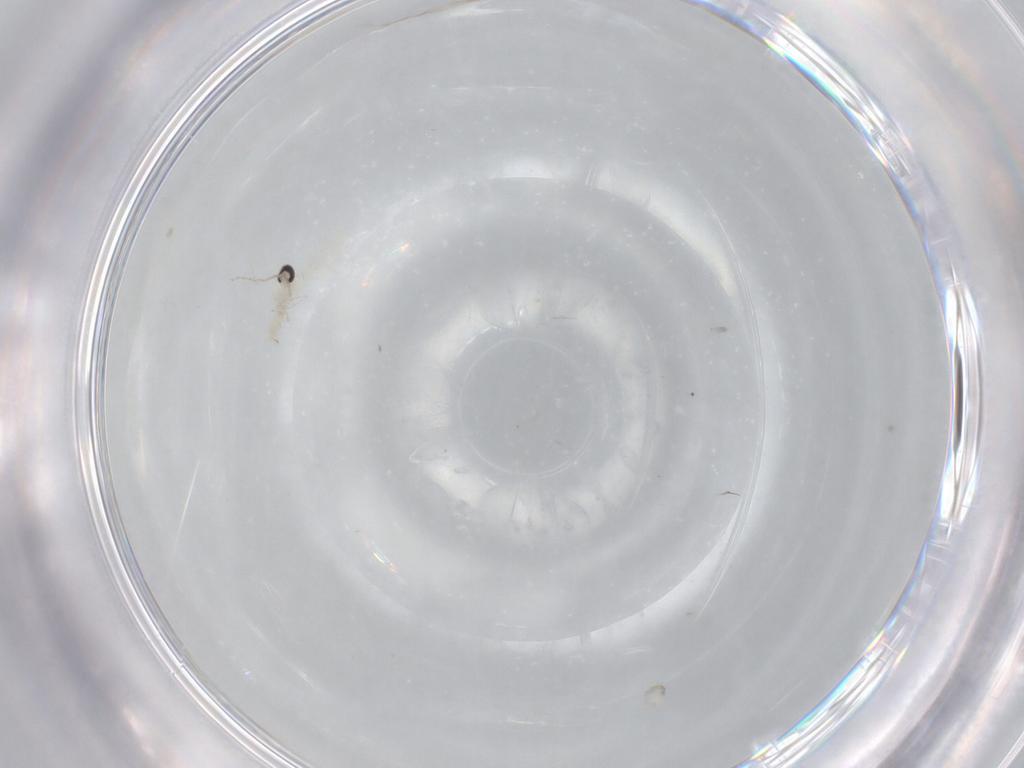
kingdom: Animalia
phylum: Arthropoda
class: Insecta
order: Diptera
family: Cecidomyiidae
